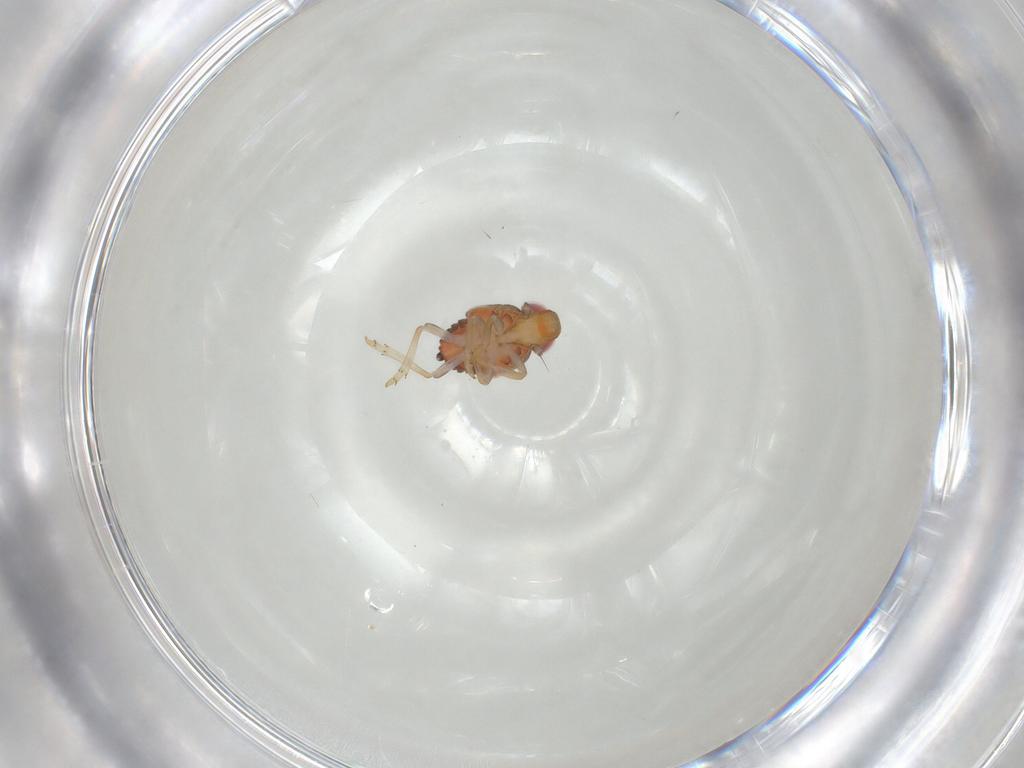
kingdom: Animalia
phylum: Arthropoda
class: Insecta
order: Hemiptera
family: Issidae
